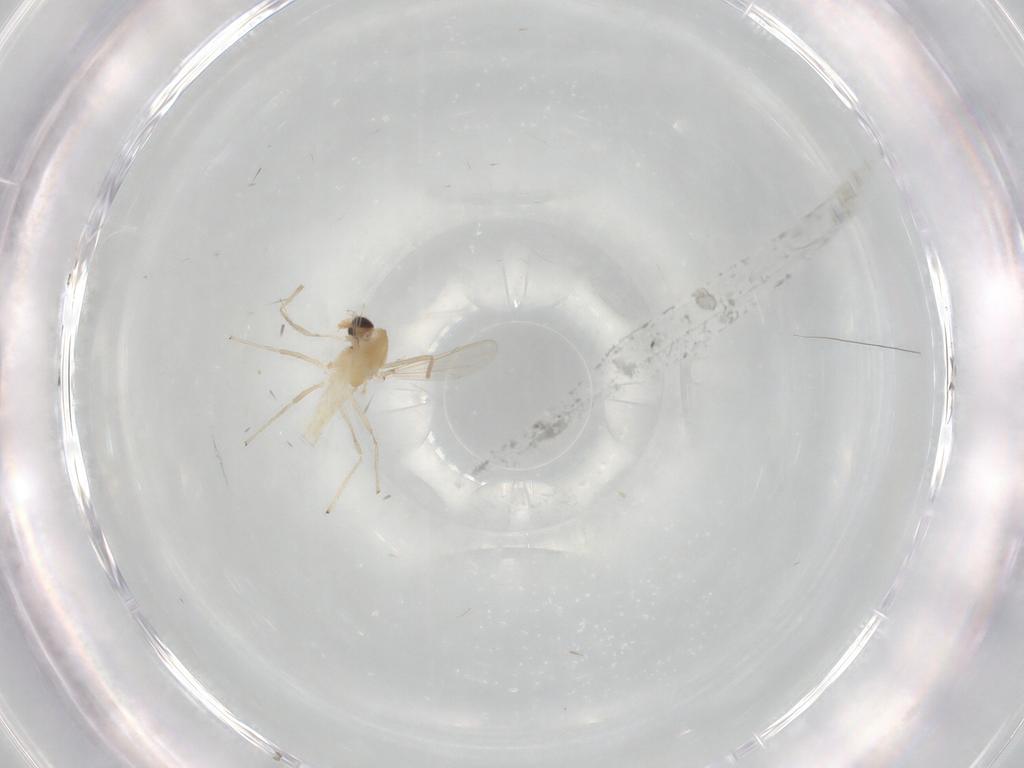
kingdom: Animalia
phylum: Arthropoda
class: Insecta
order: Diptera
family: Chironomidae
